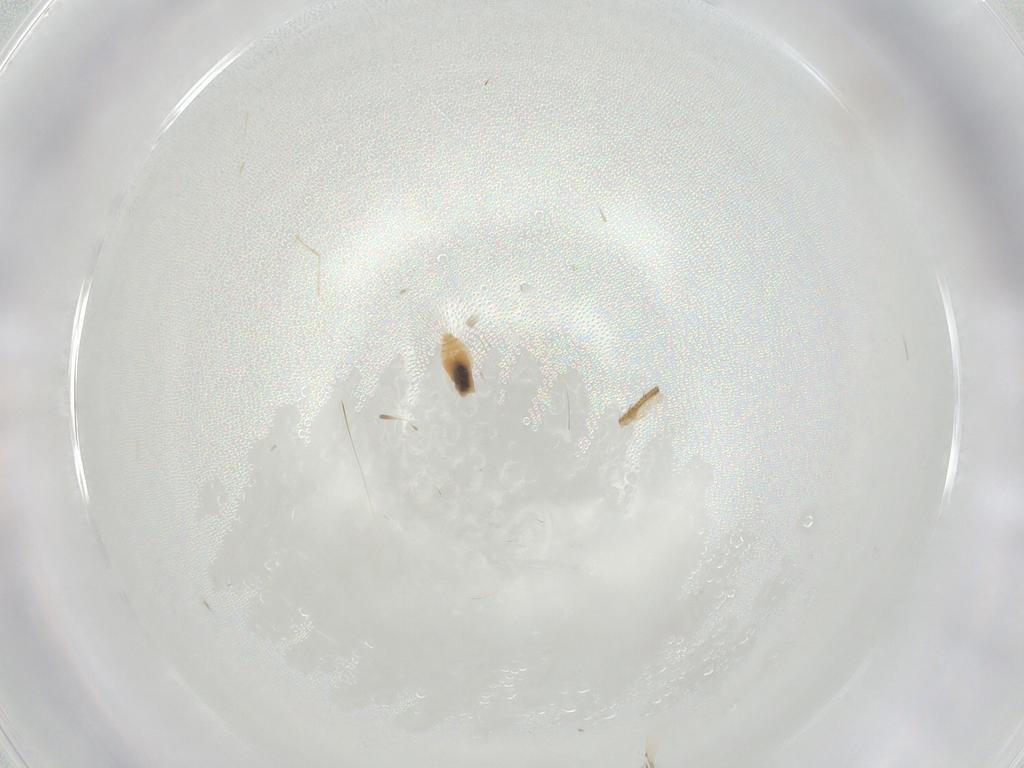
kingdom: Animalia
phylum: Arthropoda
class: Insecta
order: Diptera
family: Cecidomyiidae
